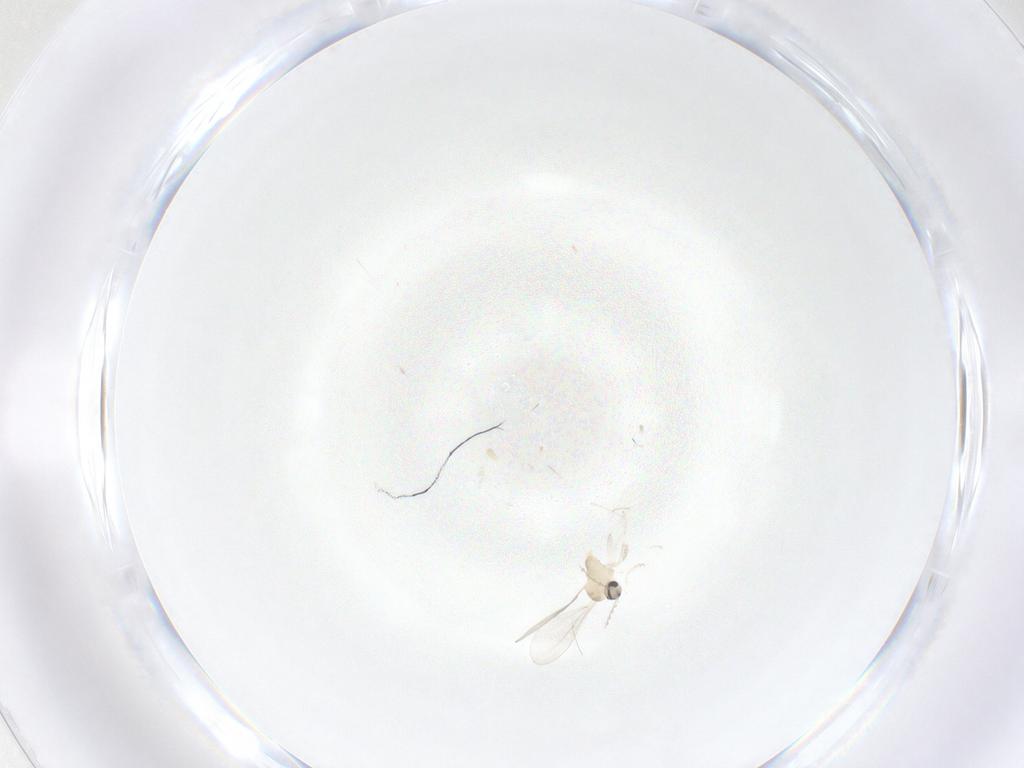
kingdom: Animalia
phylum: Arthropoda
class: Insecta
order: Diptera
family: Cecidomyiidae
